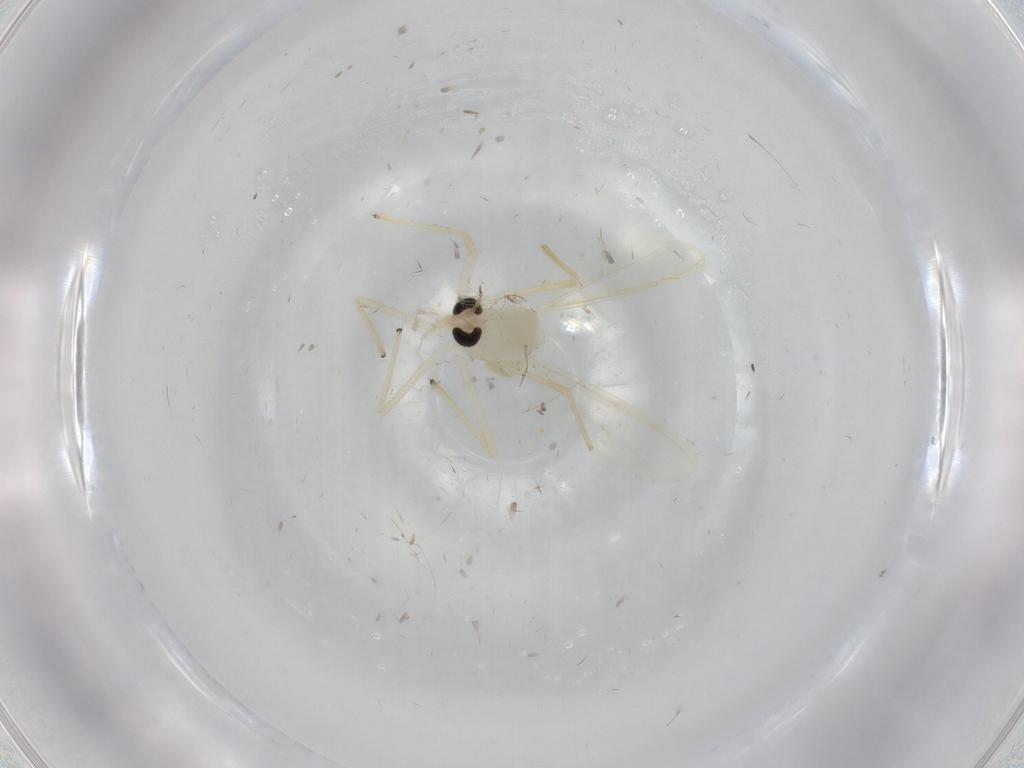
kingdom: Animalia
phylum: Arthropoda
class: Insecta
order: Diptera
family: Chironomidae
